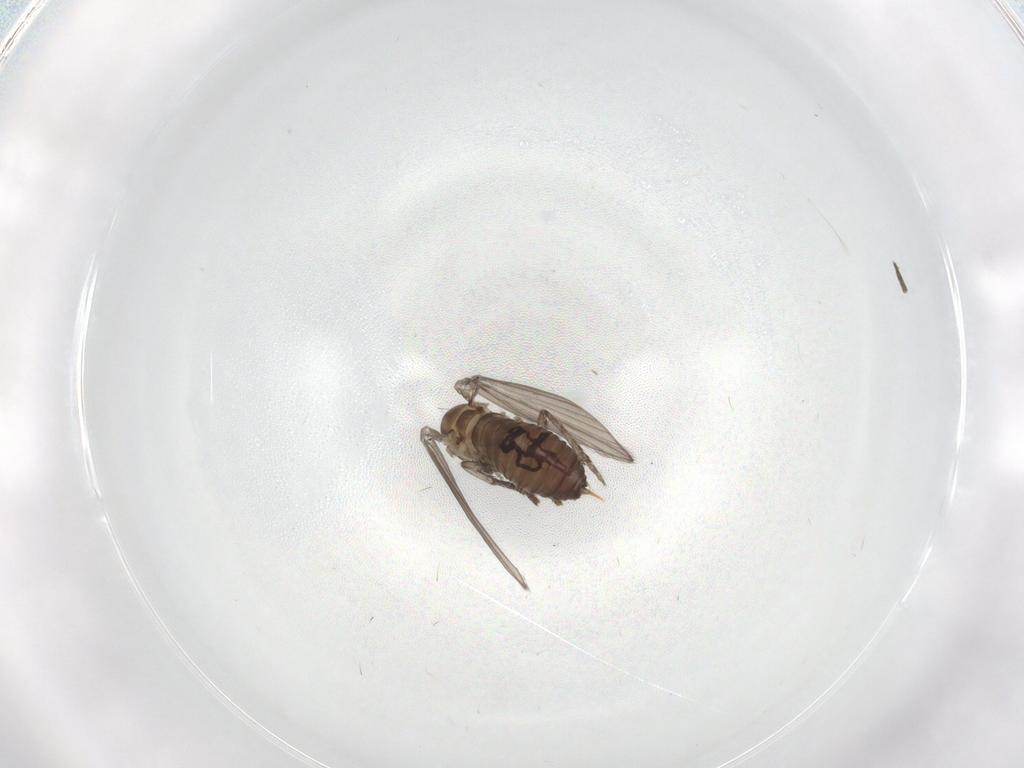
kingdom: Animalia
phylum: Arthropoda
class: Insecta
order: Diptera
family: Psychodidae
